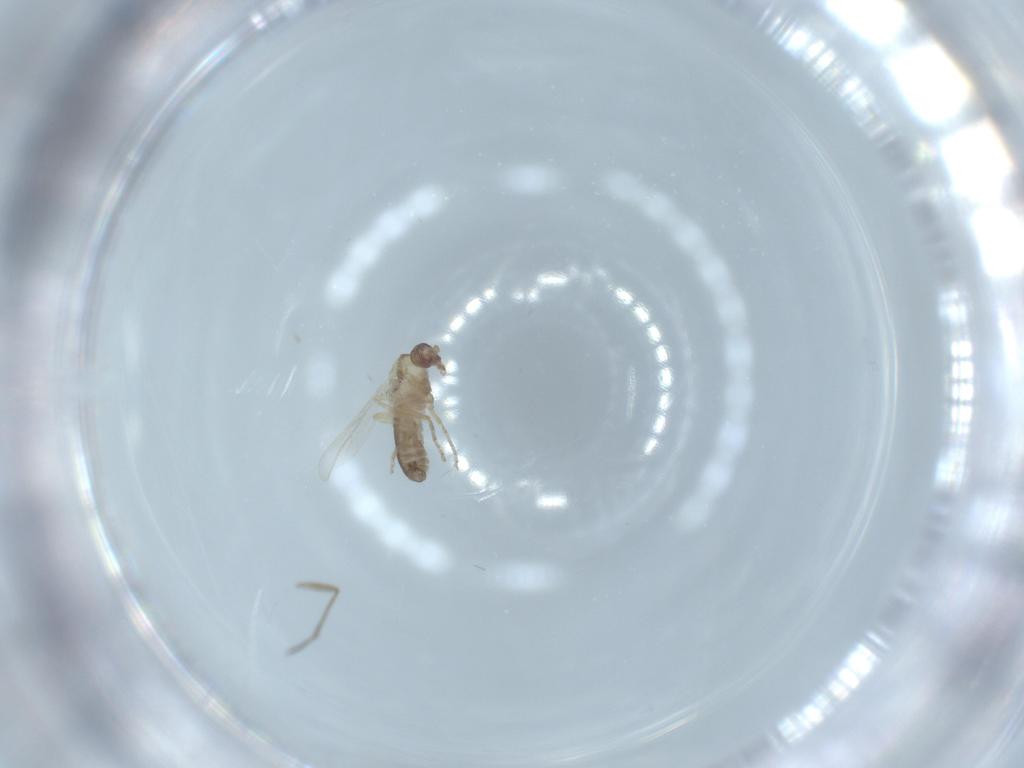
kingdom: Animalia
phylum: Arthropoda
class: Insecta
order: Diptera
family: Ceratopogonidae
